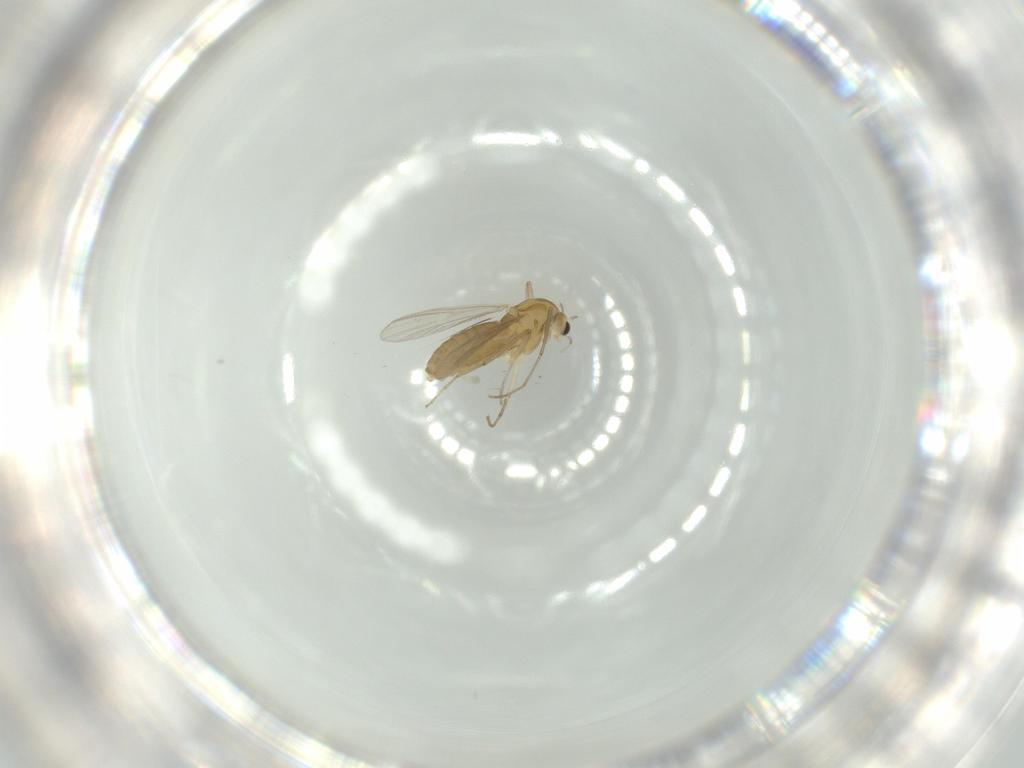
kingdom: Animalia
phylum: Arthropoda
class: Insecta
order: Diptera
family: Chironomidae
